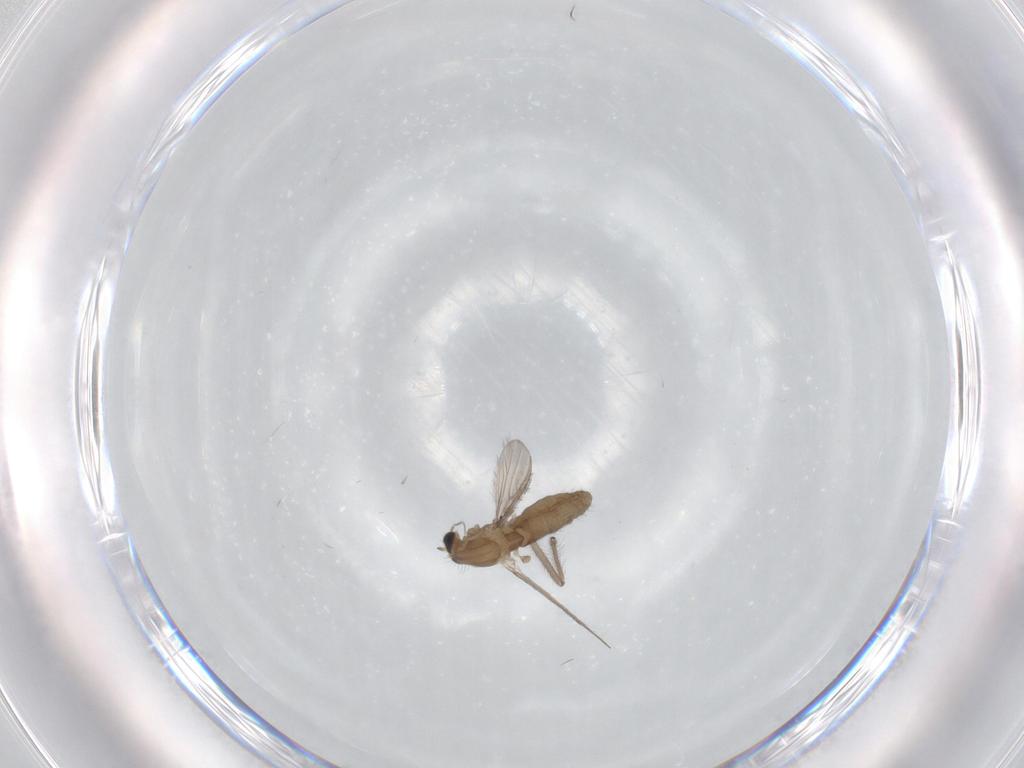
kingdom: Animalia
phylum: Arthropoda
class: Insecta
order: Diptera
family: Chironomidae
